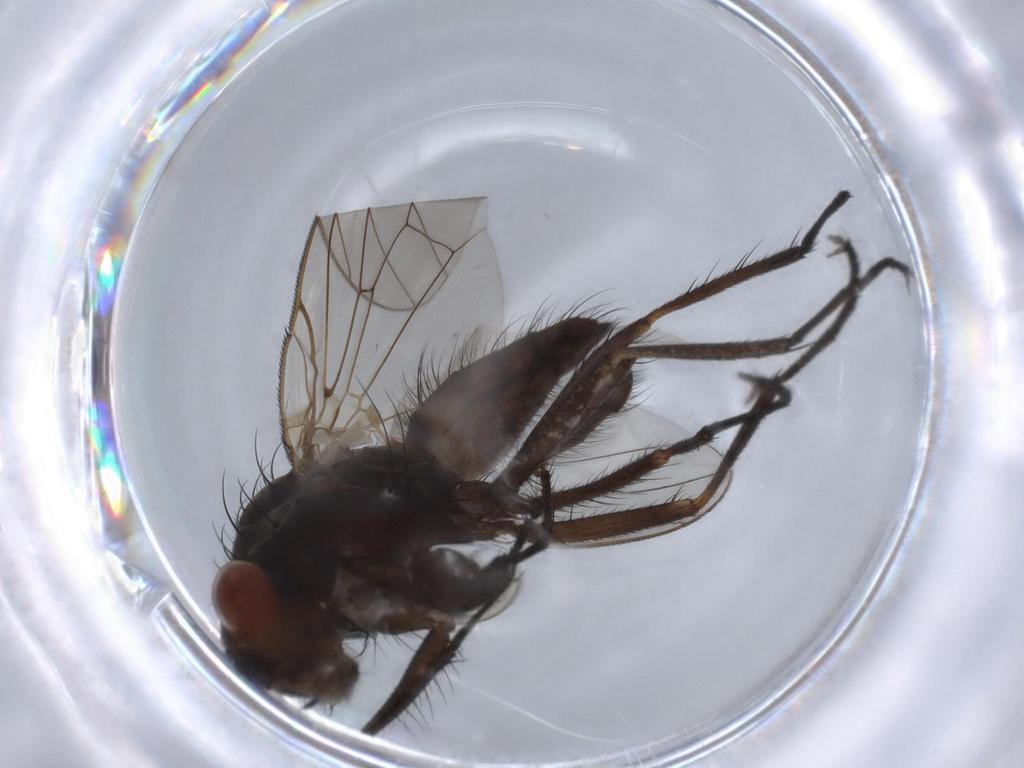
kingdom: Animalia
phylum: Arthropoda
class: Insecta
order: Diptera
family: Anthomyiidae
